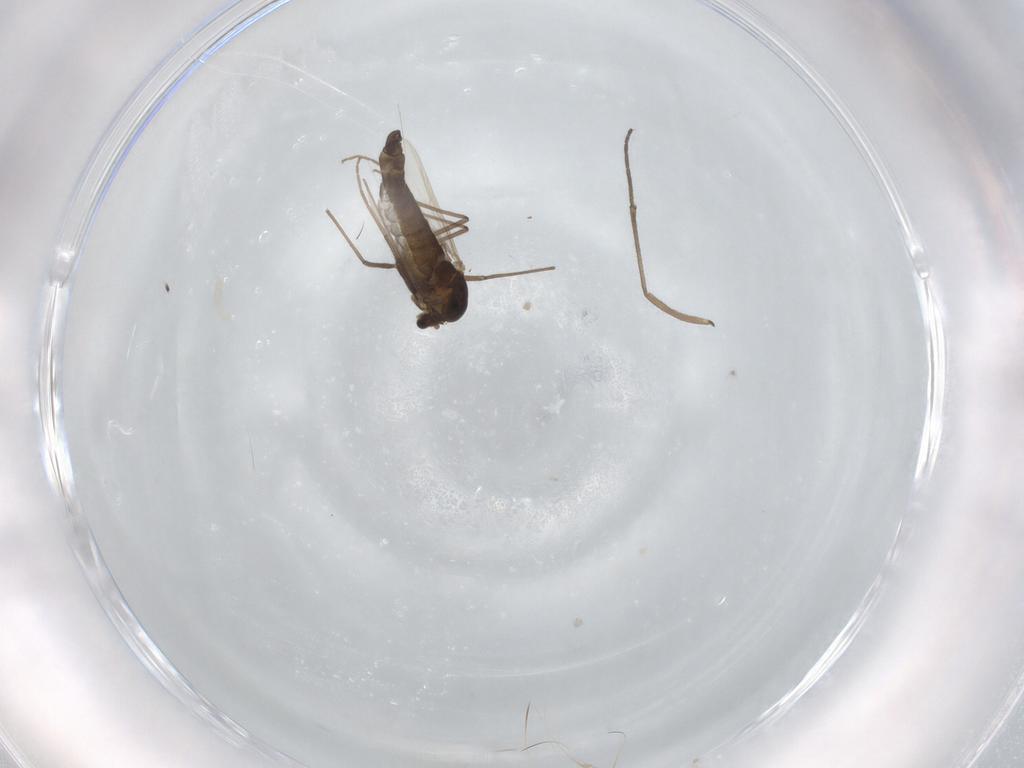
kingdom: Animalia
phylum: Arthropoda
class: Insecta
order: Diptera
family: Chironomidae
